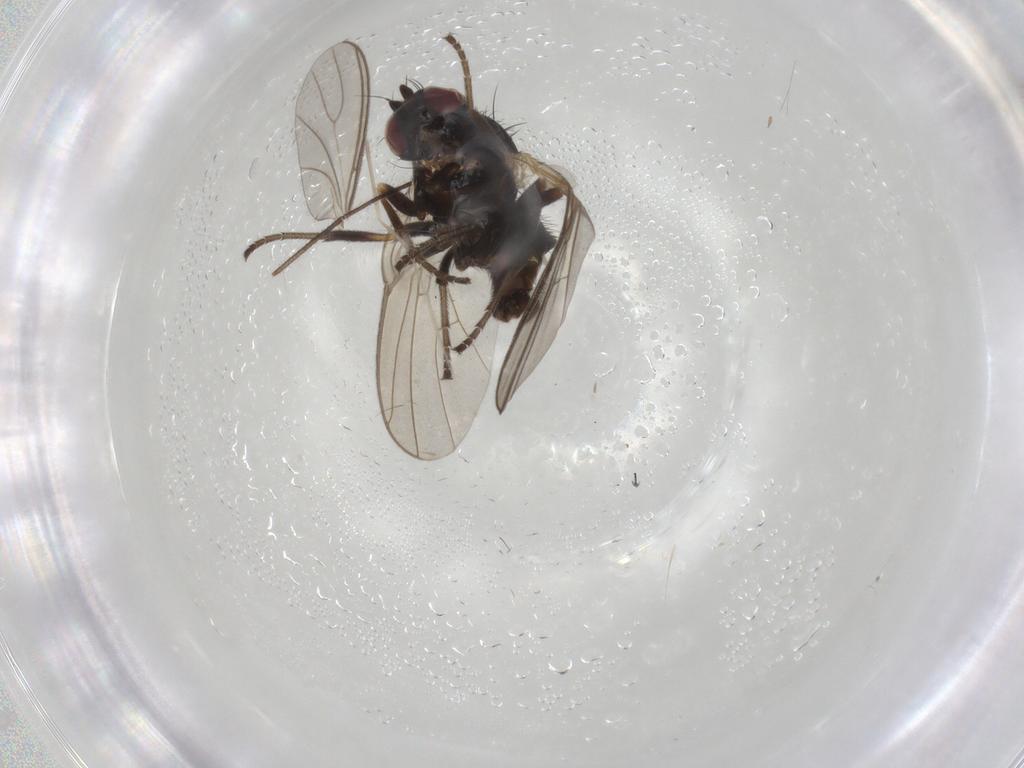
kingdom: Animalia
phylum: Arthropoda
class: Insecta
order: Diptera
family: Agromyzidae
